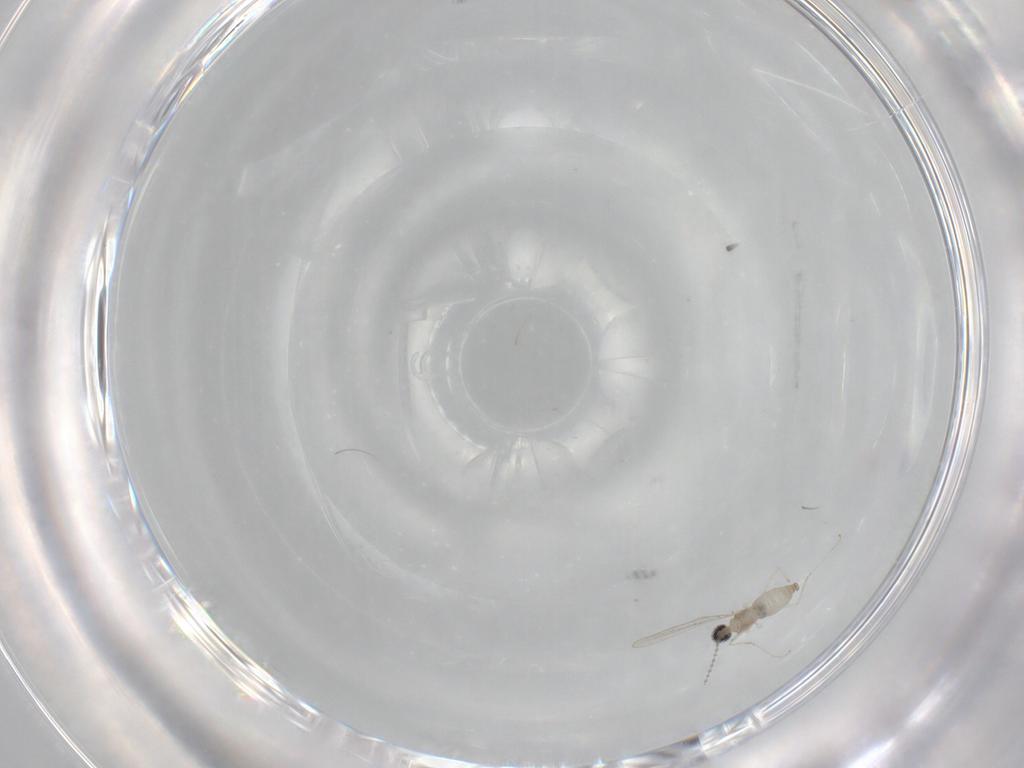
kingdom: Animalia
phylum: Arthropoda
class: Insecta
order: Diptera
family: Cecidomyiidae
